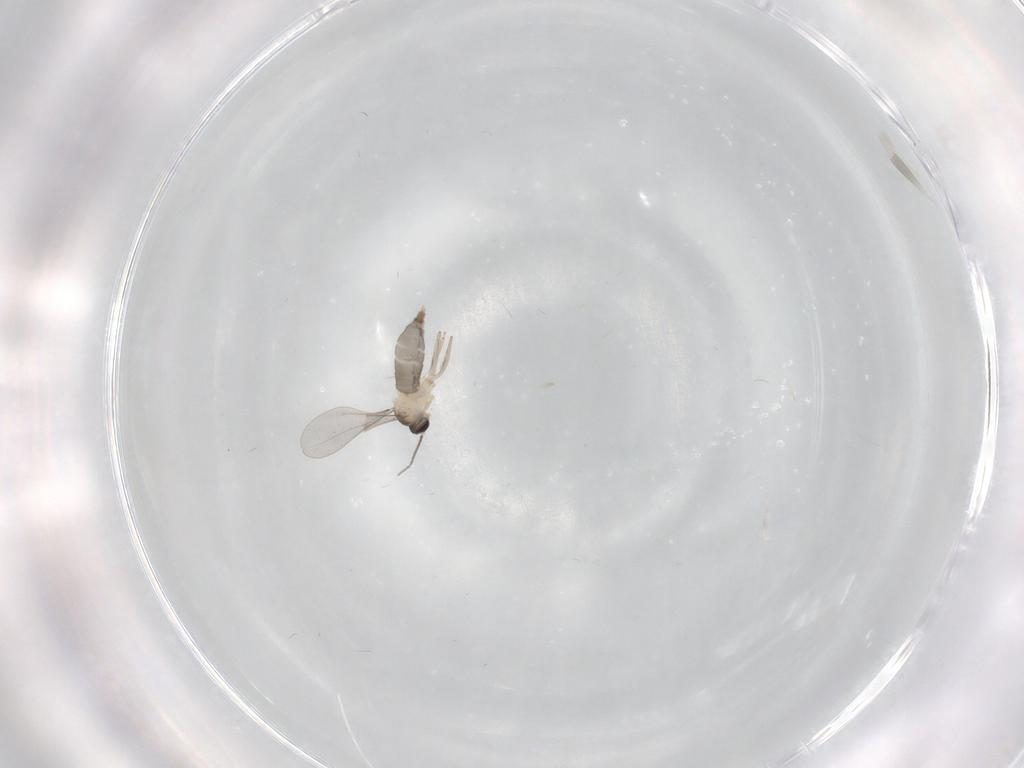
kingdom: Animalia
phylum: Arthropoda
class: Insecta
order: Diptera
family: Cecidomyiidae
